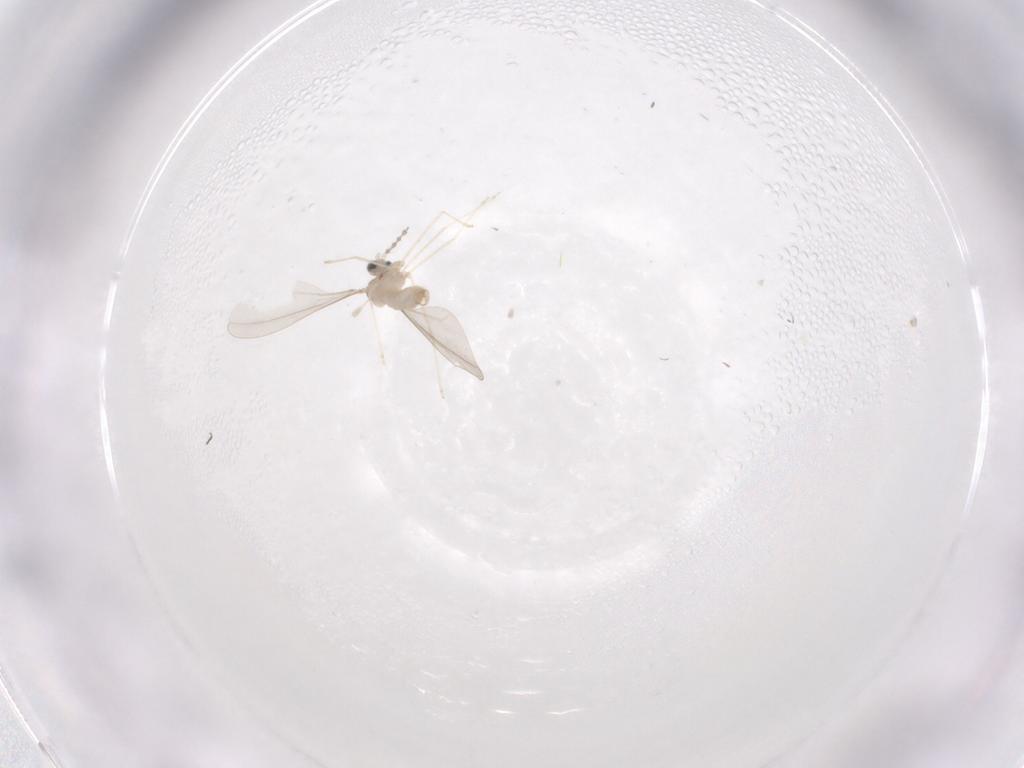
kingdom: Animalia
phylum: Arthropoda
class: Insecta
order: Diptera
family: Cecidomyiidae
